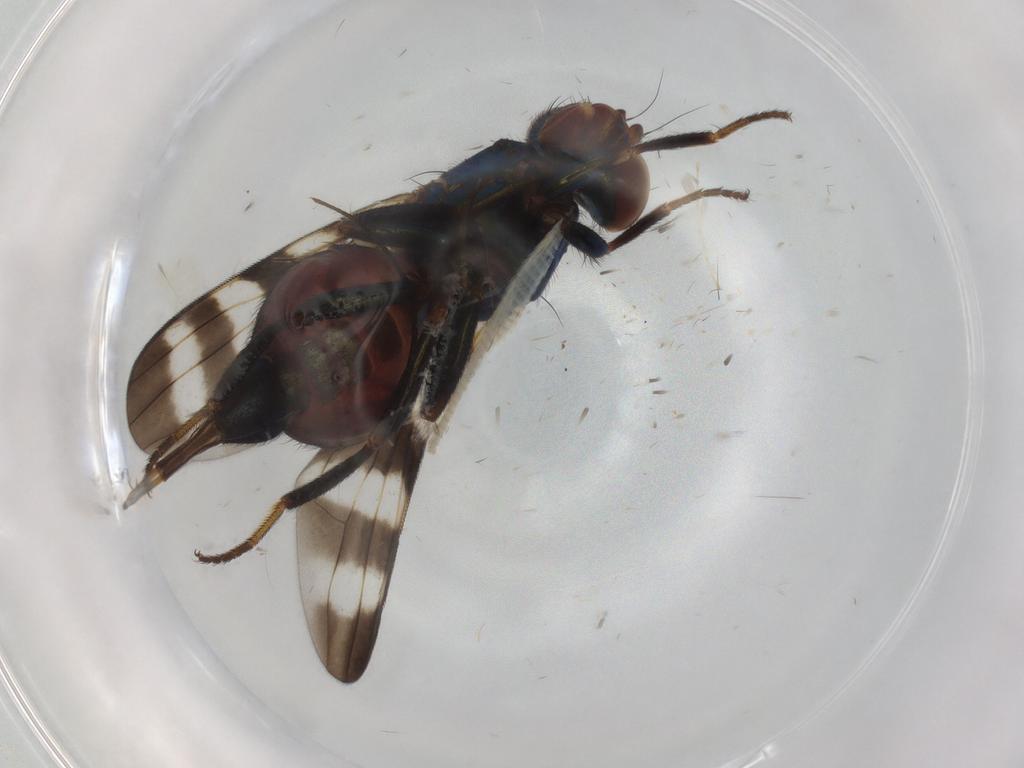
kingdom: Animalia
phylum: Arthropoda
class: Insecta
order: Diptera
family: Ulidiidae
